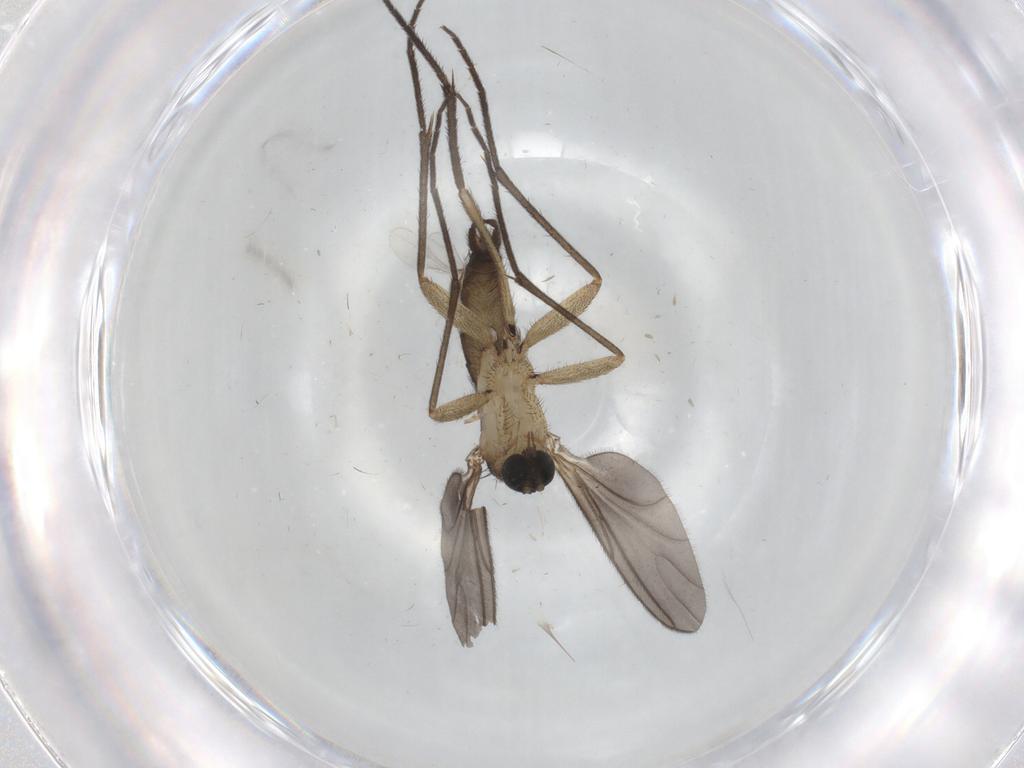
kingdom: Animalia
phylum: Arthropoda
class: Insecta
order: Diptera
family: Sciaridae
